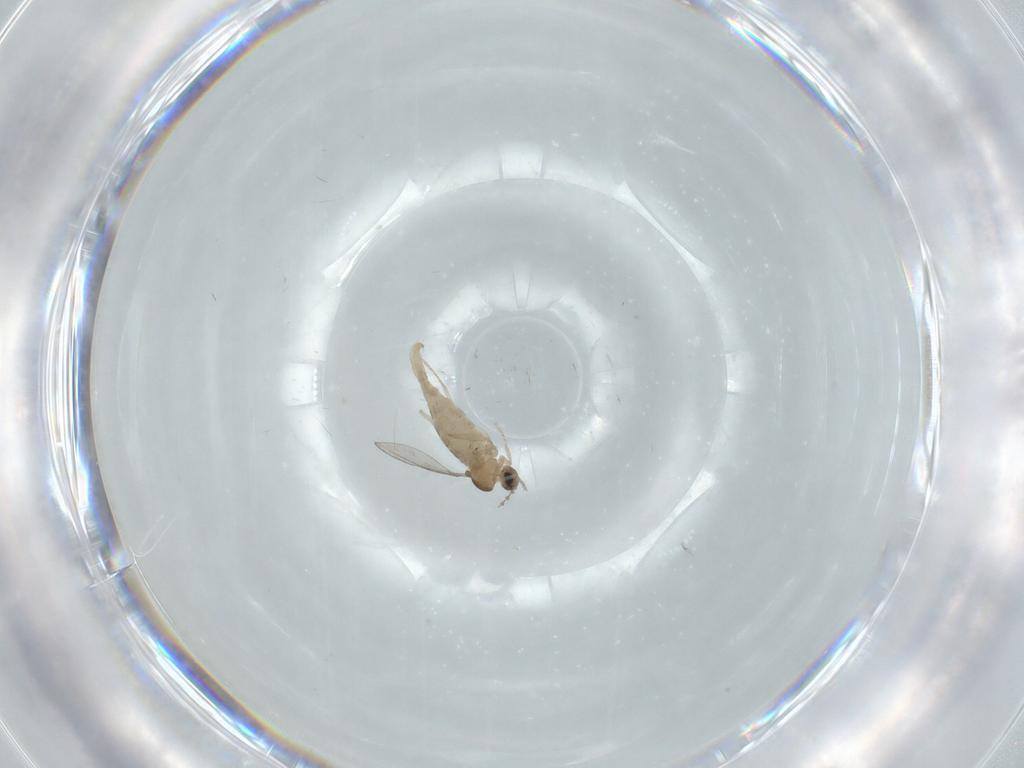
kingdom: Animalia
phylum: Arthropoda
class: Insecta
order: Diptera
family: Cecidomyiidae
